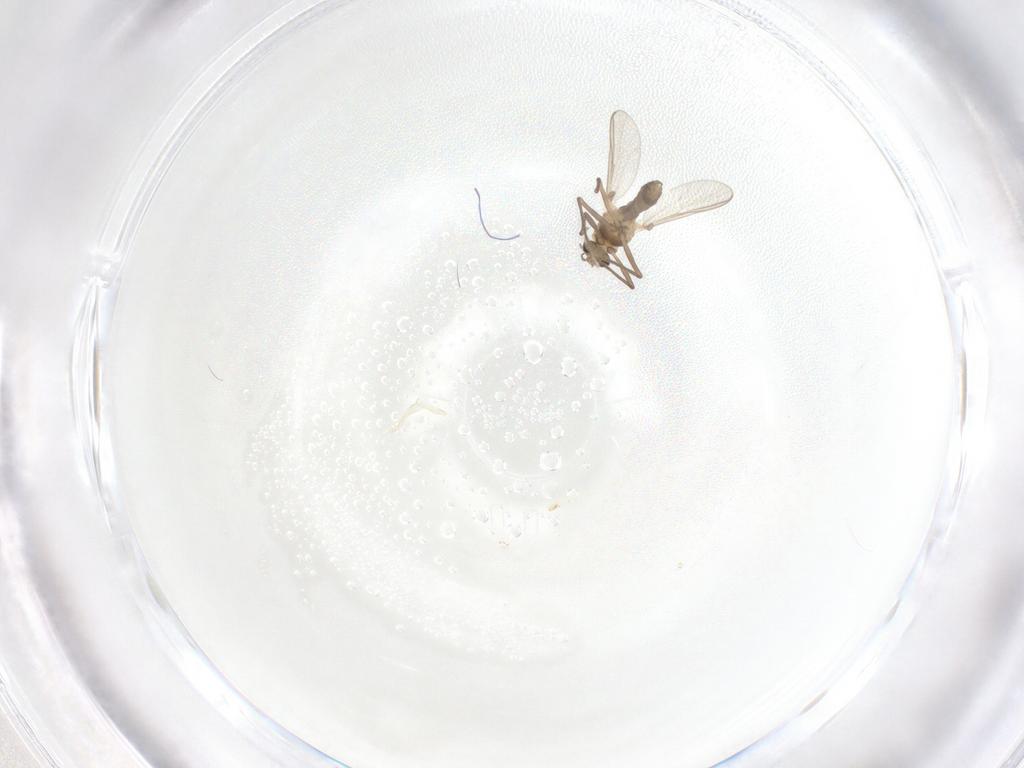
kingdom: Animalia
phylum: Arthropoda
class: Insecta
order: Diptera
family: Chironomidae
